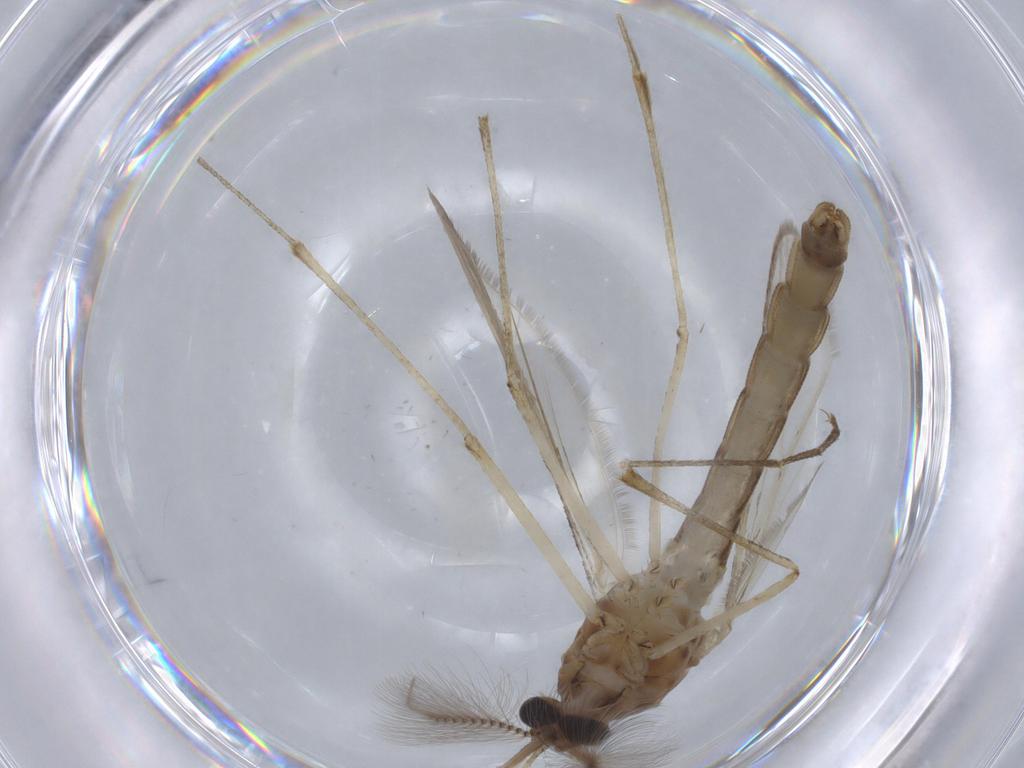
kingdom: Animalia
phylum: Arthropoda
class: Insecta
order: Diptera
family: Culicidae
